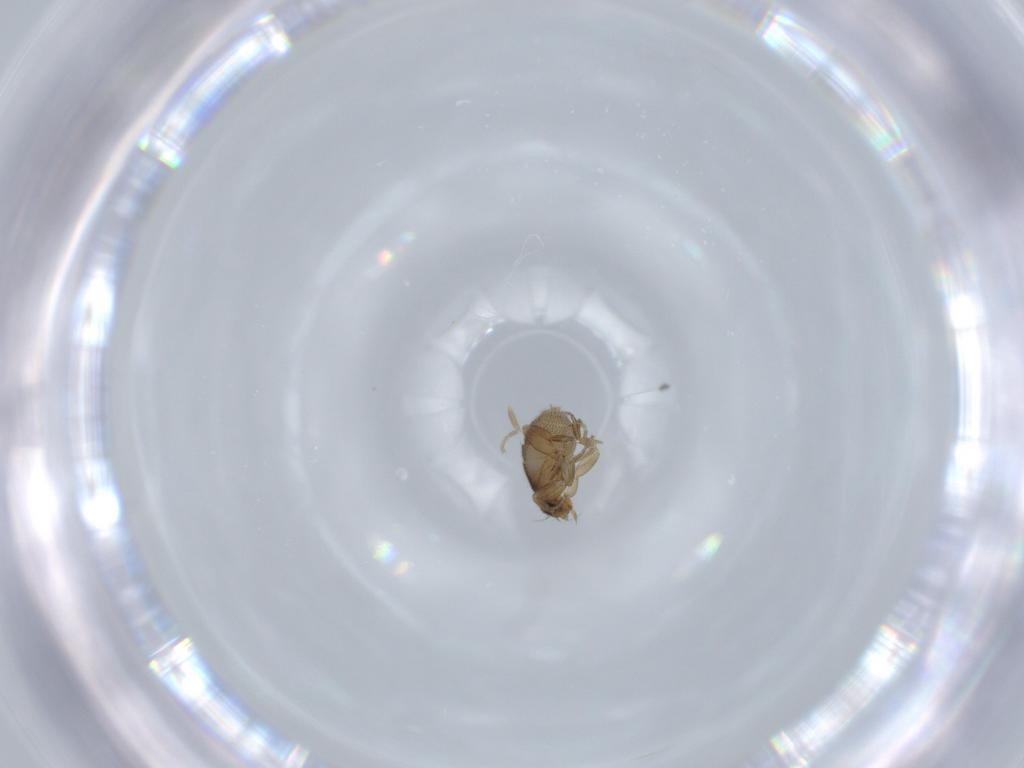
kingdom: Animalia
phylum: Arthropoda
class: Insecta
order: Diptera
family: Phoridae
